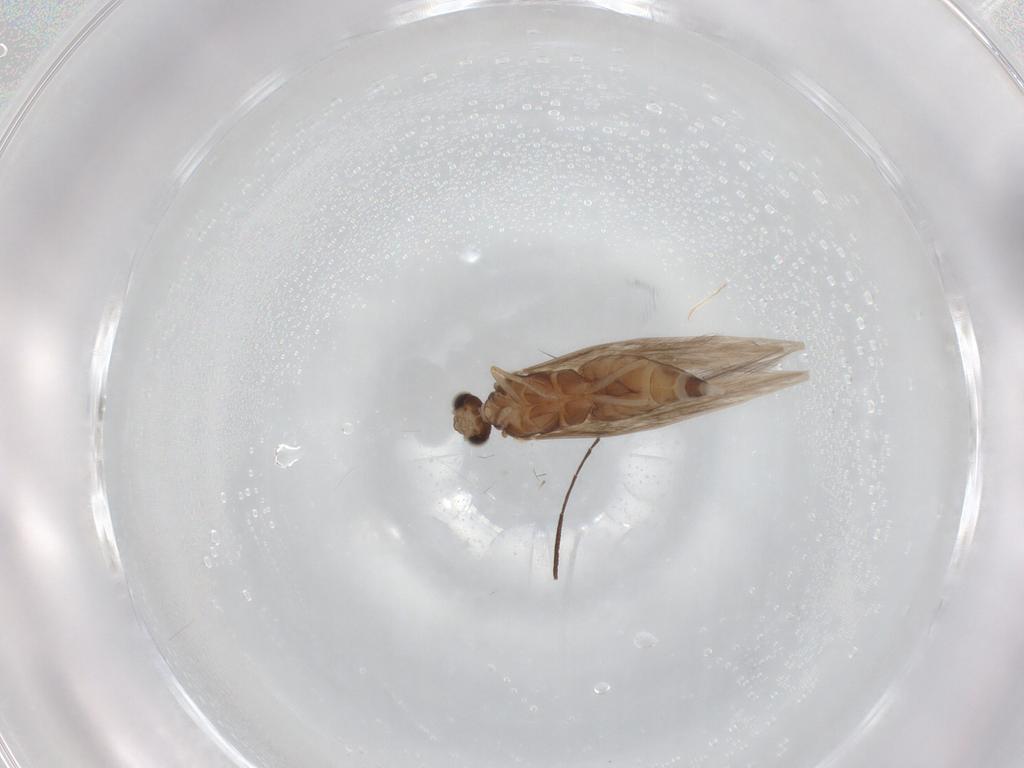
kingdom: Animalia
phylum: Arthropoda
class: Insecta
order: Trichoptera
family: Hydroptilidae
